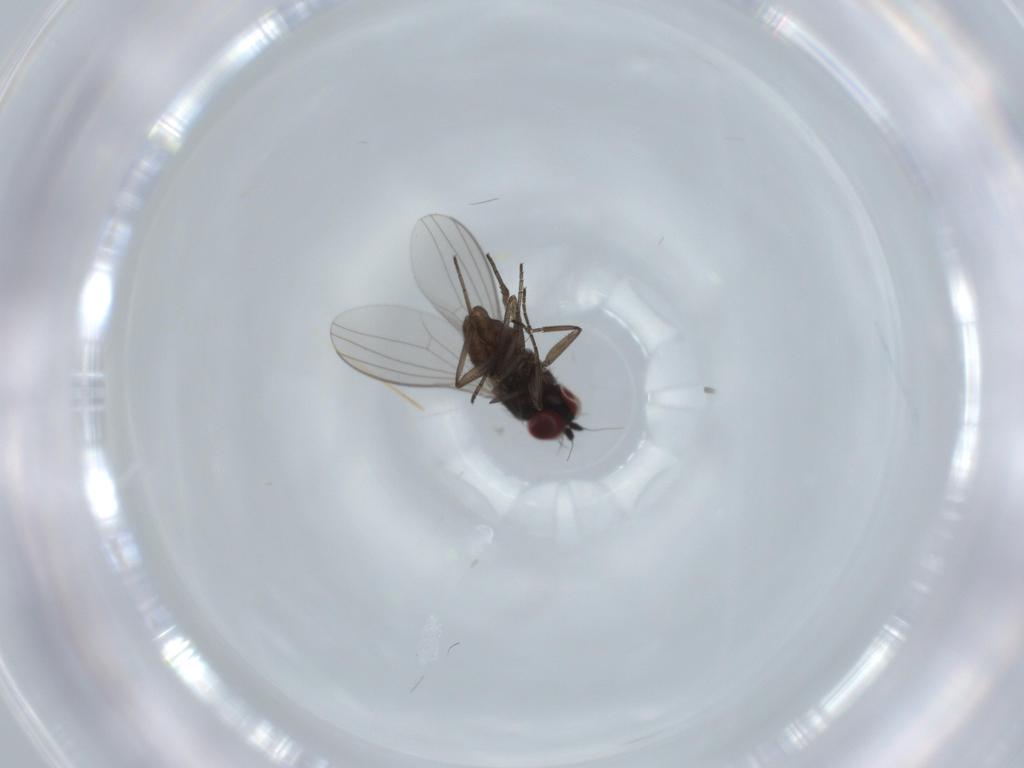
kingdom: Animalia
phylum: Arthropoda
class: Insecta
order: Diptera
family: Dolichopodidae
